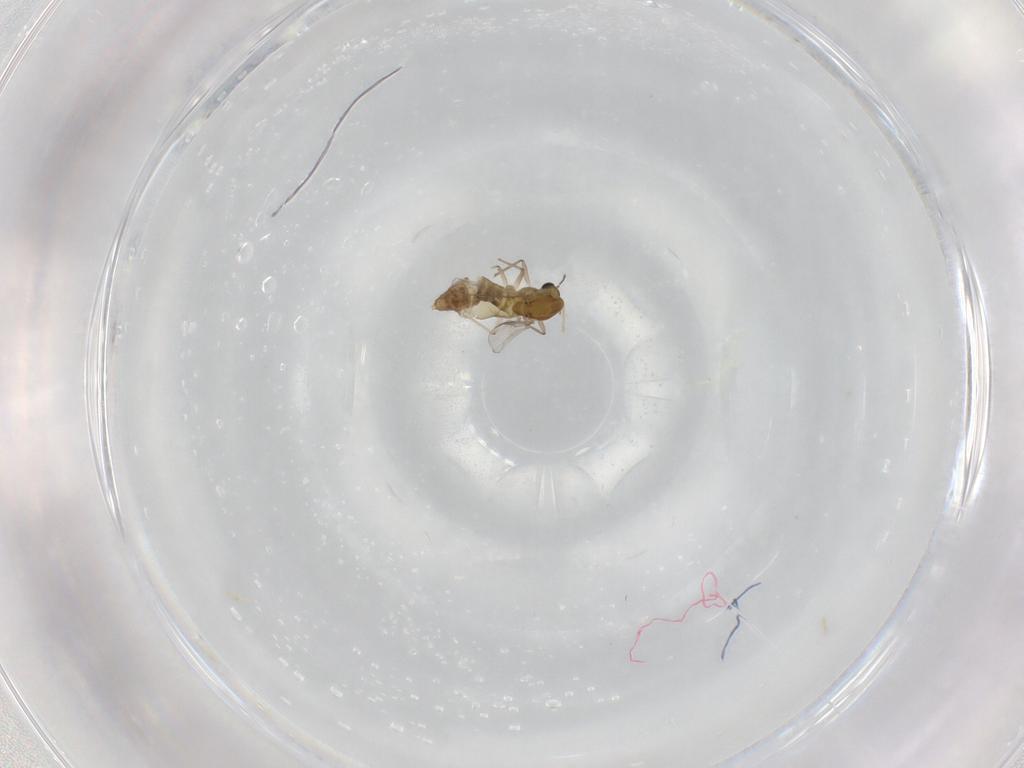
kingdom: Animalia
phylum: Arthropoda
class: Insecta
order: Diptera
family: Chironomidae
